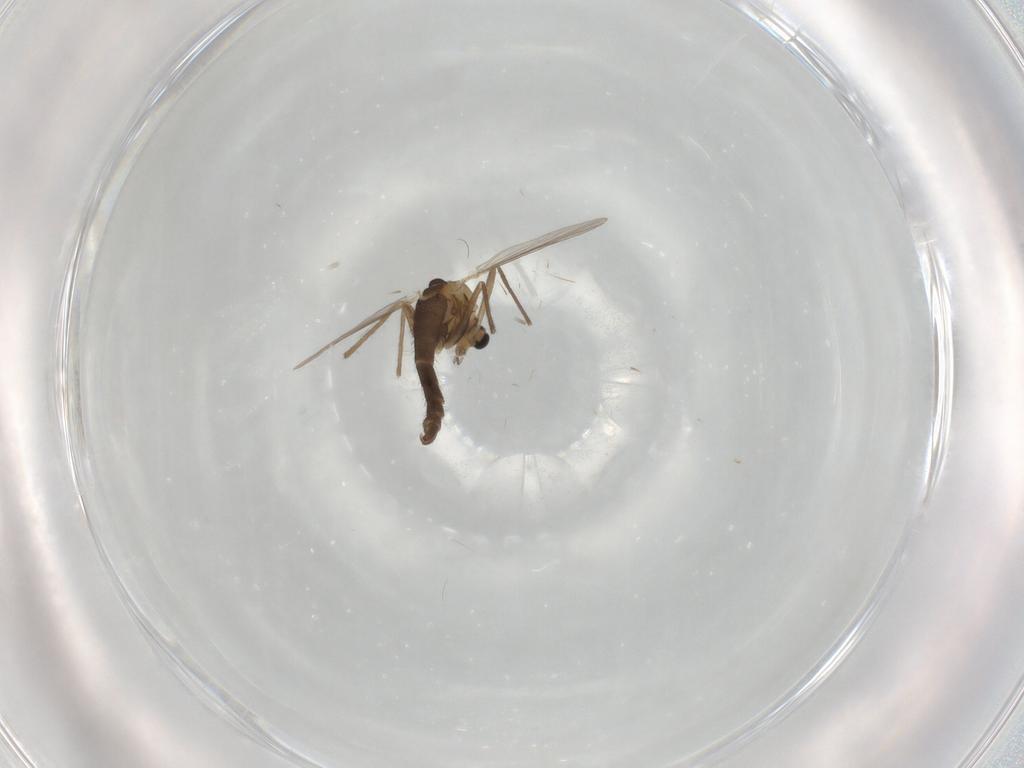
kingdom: Animalia
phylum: Arthropoda
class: Insecta
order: Diptera
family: Chironomidae
